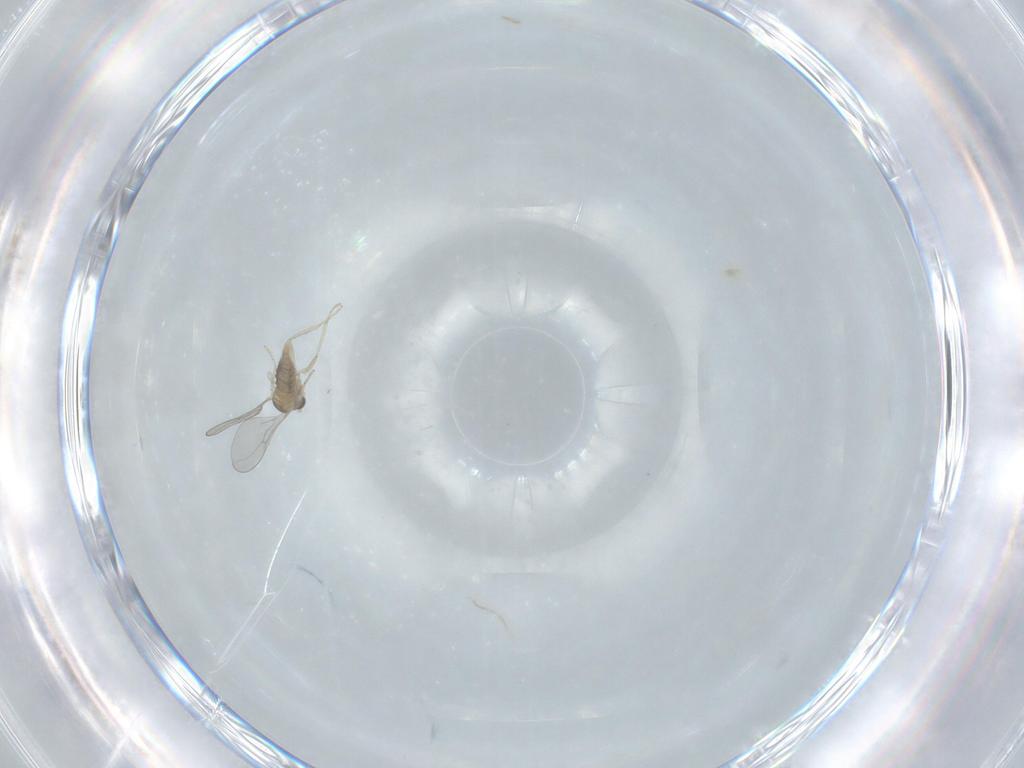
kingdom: Animalia
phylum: Arthropoda
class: Insecta
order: Diptera
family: Cecidomyiidae
